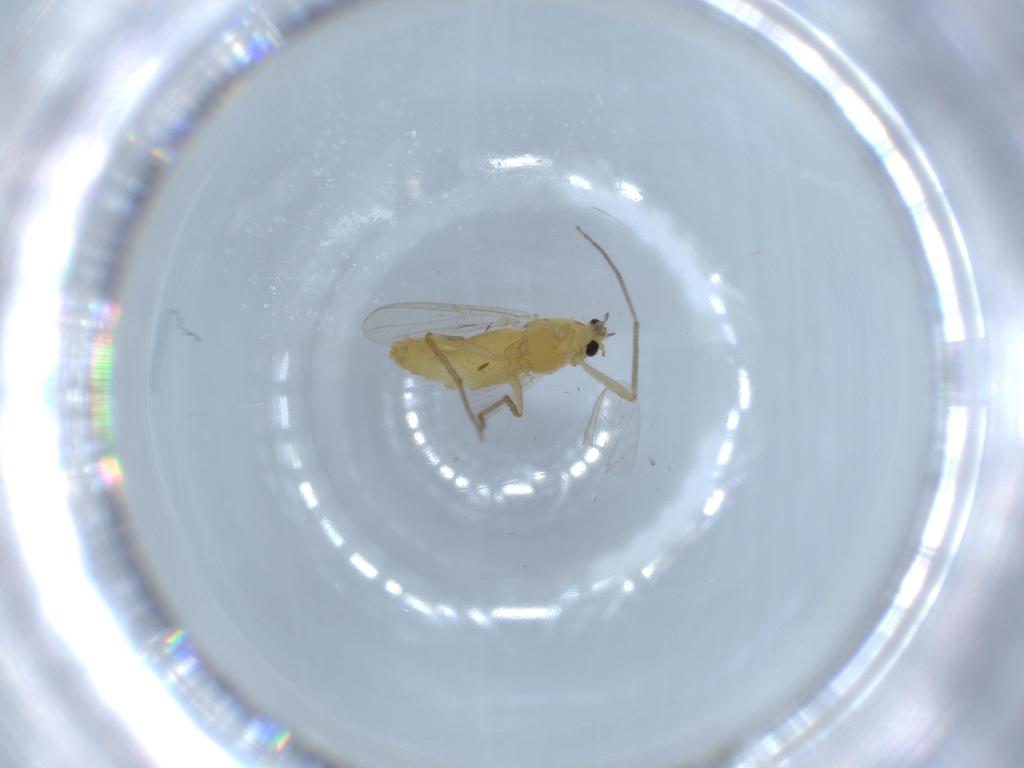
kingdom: Animalia
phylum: Arthropoda
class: Insecta
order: Diptera
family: Chironomidae
